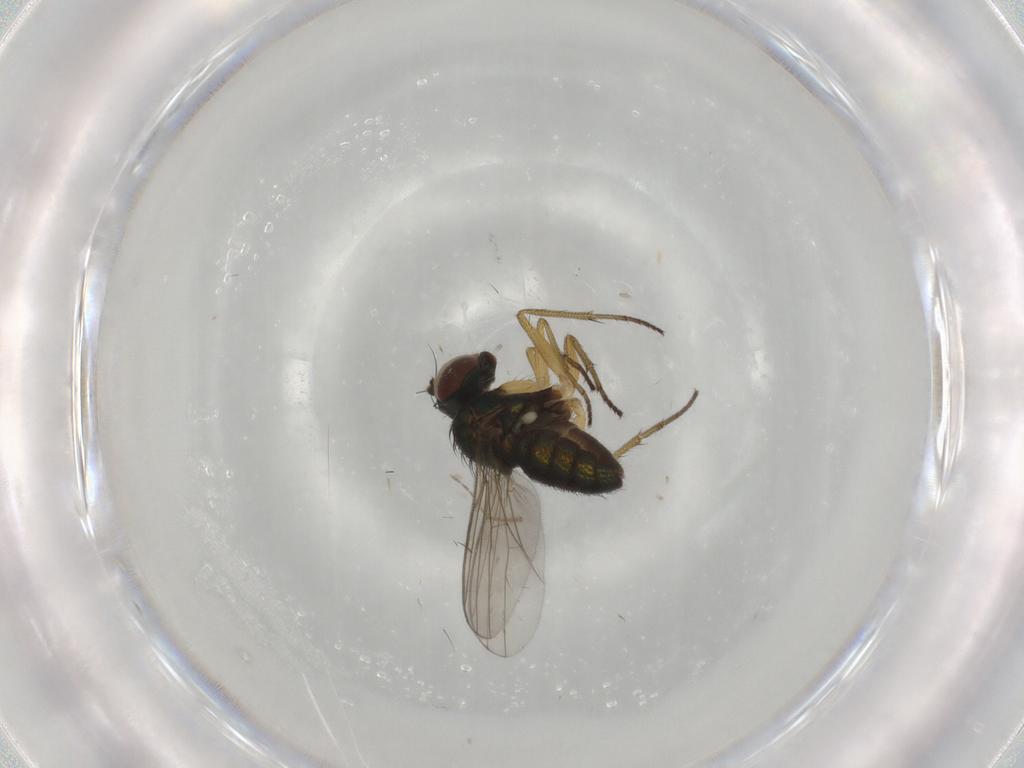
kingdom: Animalia
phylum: Arthropoda
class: Insecta
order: Diptera
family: Ceratopogonidae
